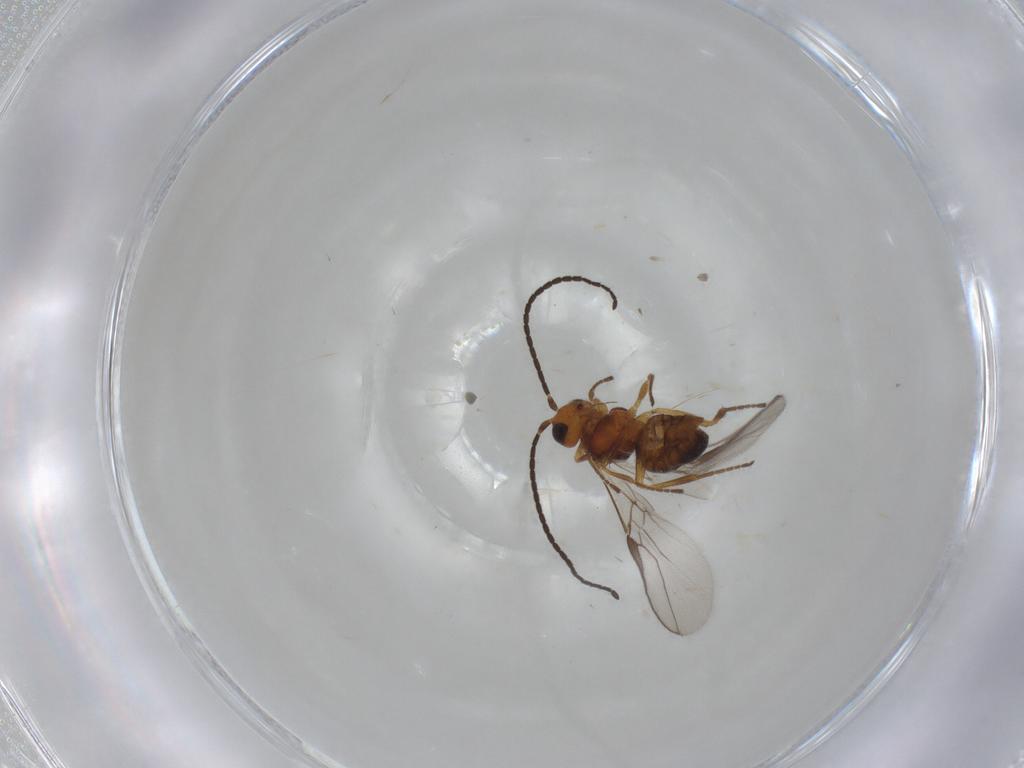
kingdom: Animalia
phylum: Arthropoda
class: Insecta
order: Hymenoptera
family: Braconidae
